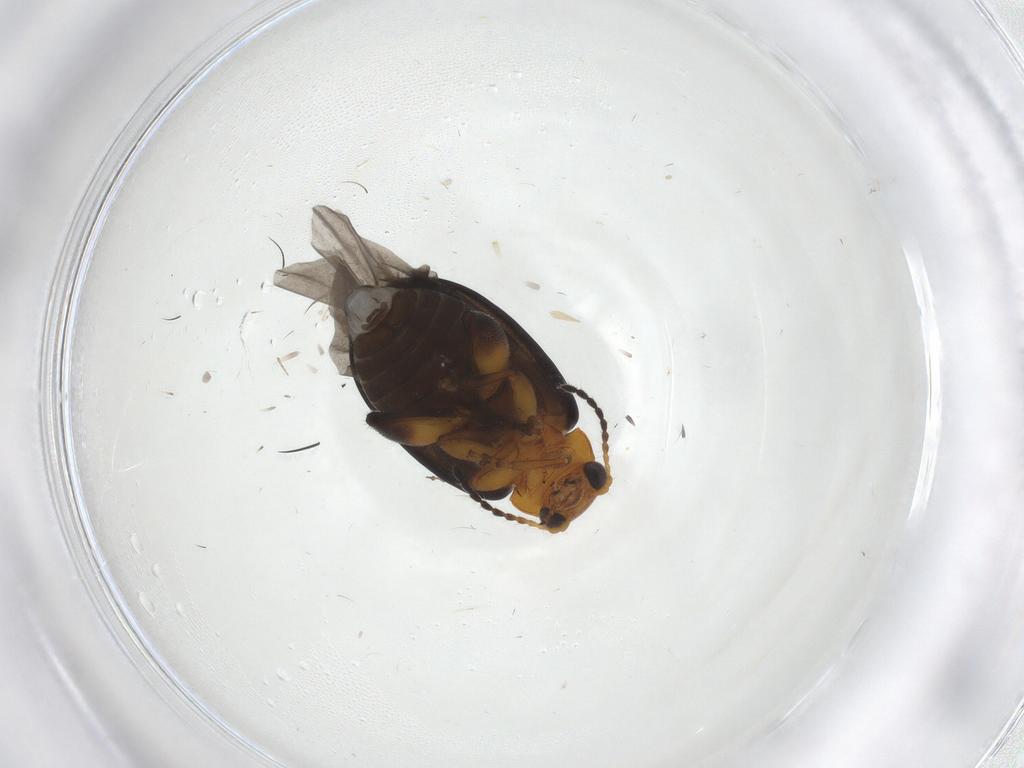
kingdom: Animalia
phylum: Arthropoda
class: Insecta
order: Coleoptera
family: Chrysomelidae
